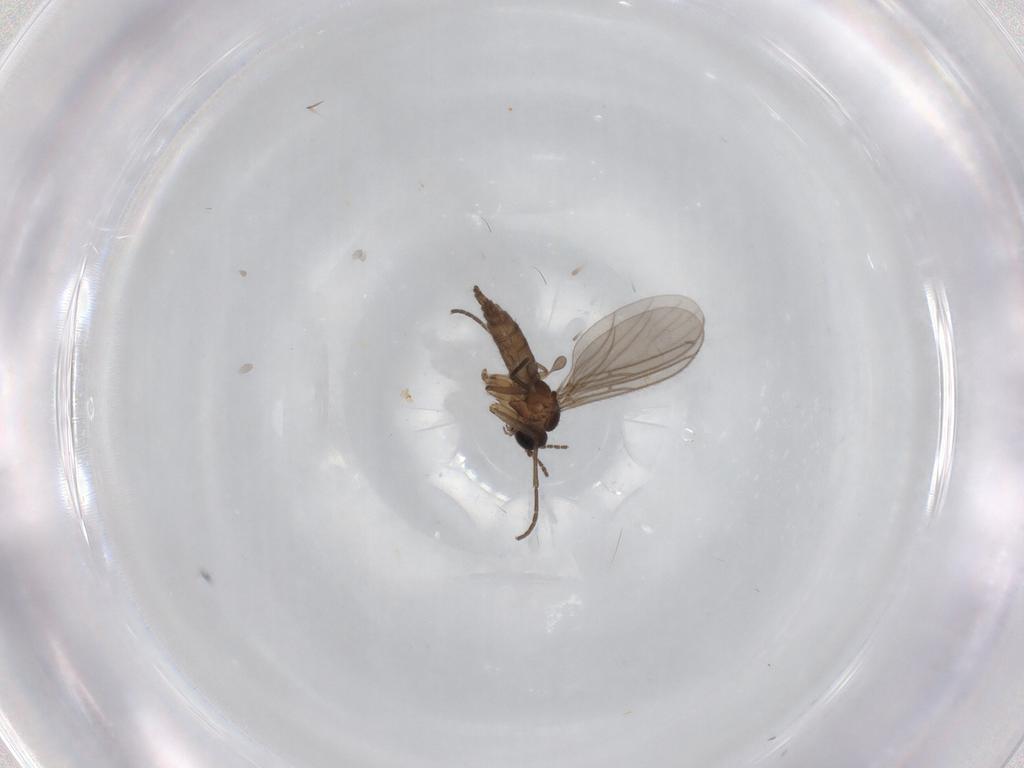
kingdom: Animalia
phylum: Arthropoda
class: Insecta
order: Diptera
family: Phoridae
